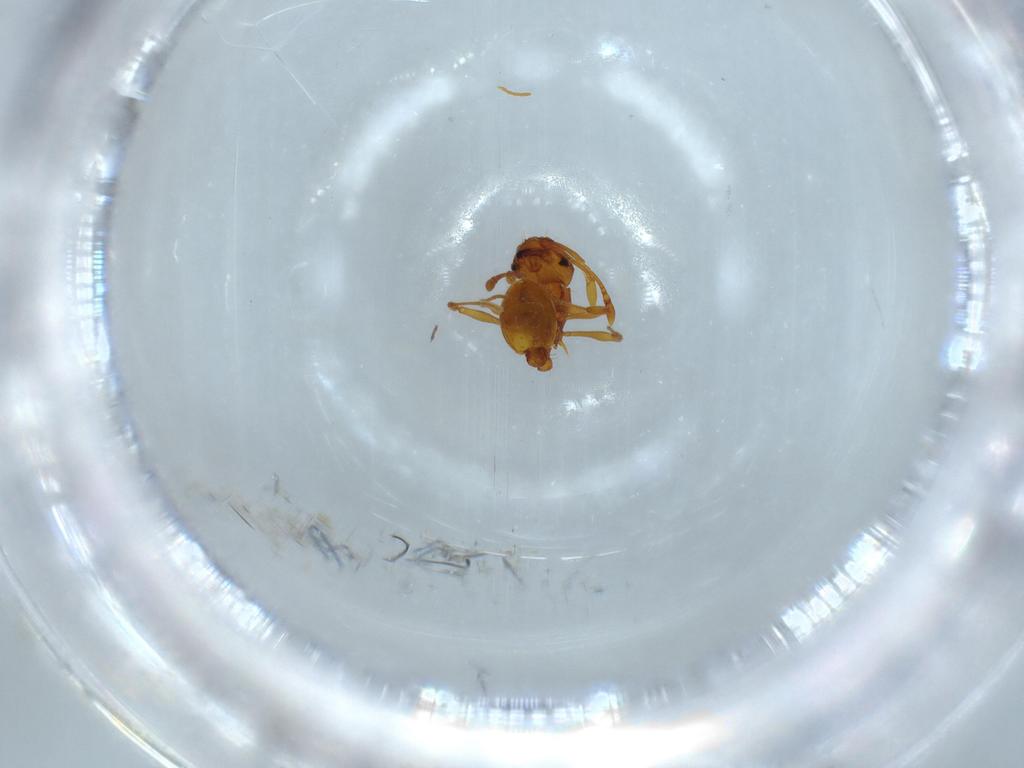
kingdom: Animalia
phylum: Arthropoda
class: Insecta
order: Hymenoptera
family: Formicidae
